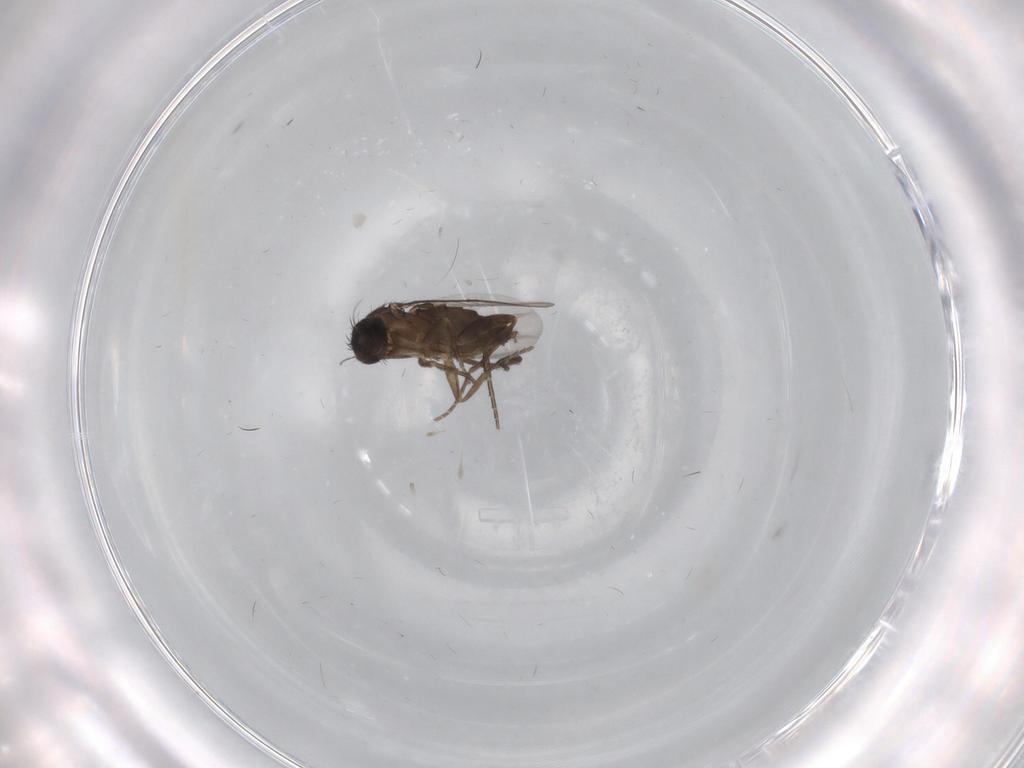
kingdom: Animalia
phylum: Arthropoda
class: Insecta
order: Diptera
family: Phoridae
